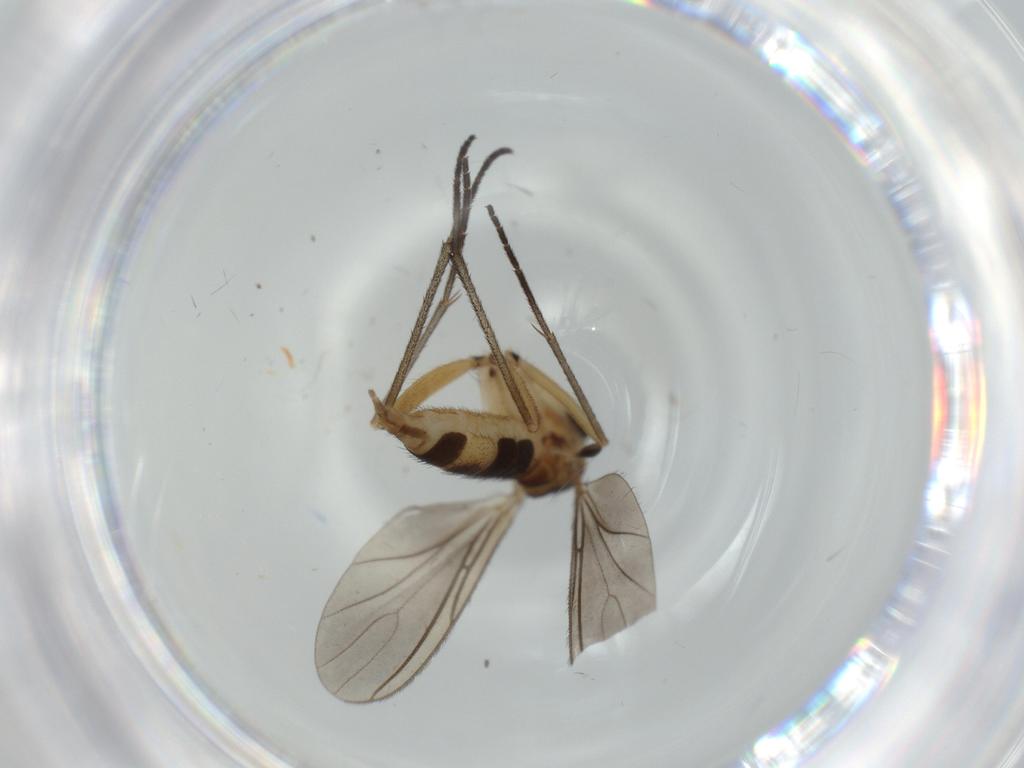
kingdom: Animalia
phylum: Arthropoda
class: Insecta
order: Diptera
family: Sciaridae
